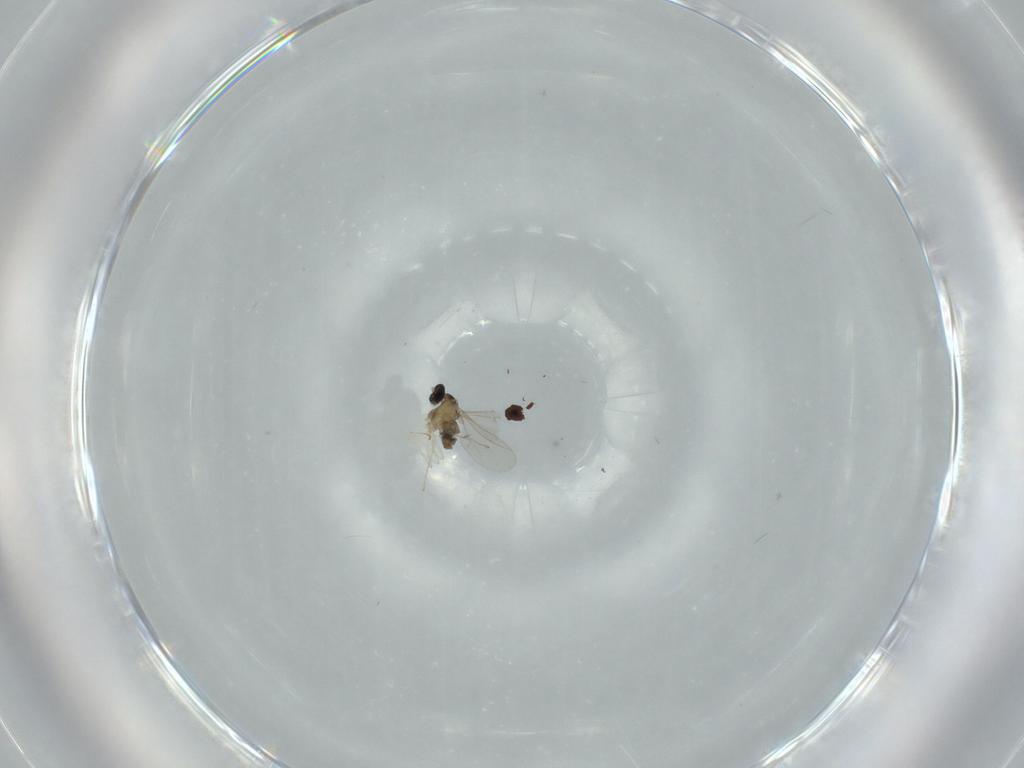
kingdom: Animalia
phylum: Arthropoda
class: Insecta
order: Diptera
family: Cecidomyiidae
